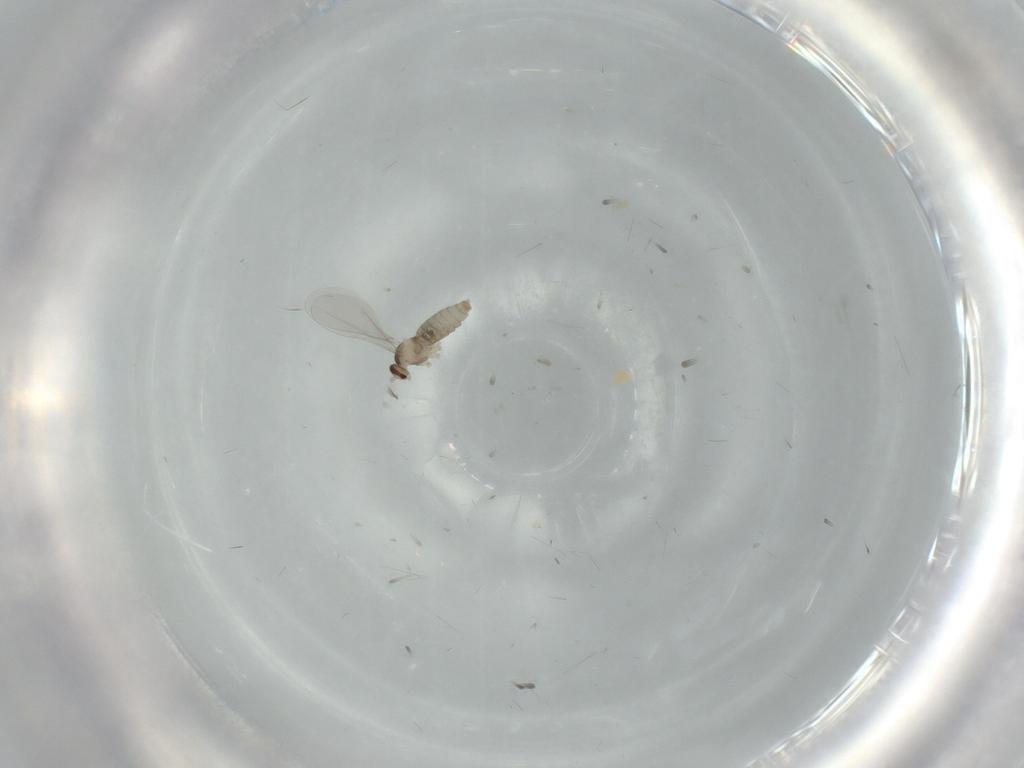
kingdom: Animalia
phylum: Arthropoda
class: Insecta
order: Diptera
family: Cecidomyiidae
